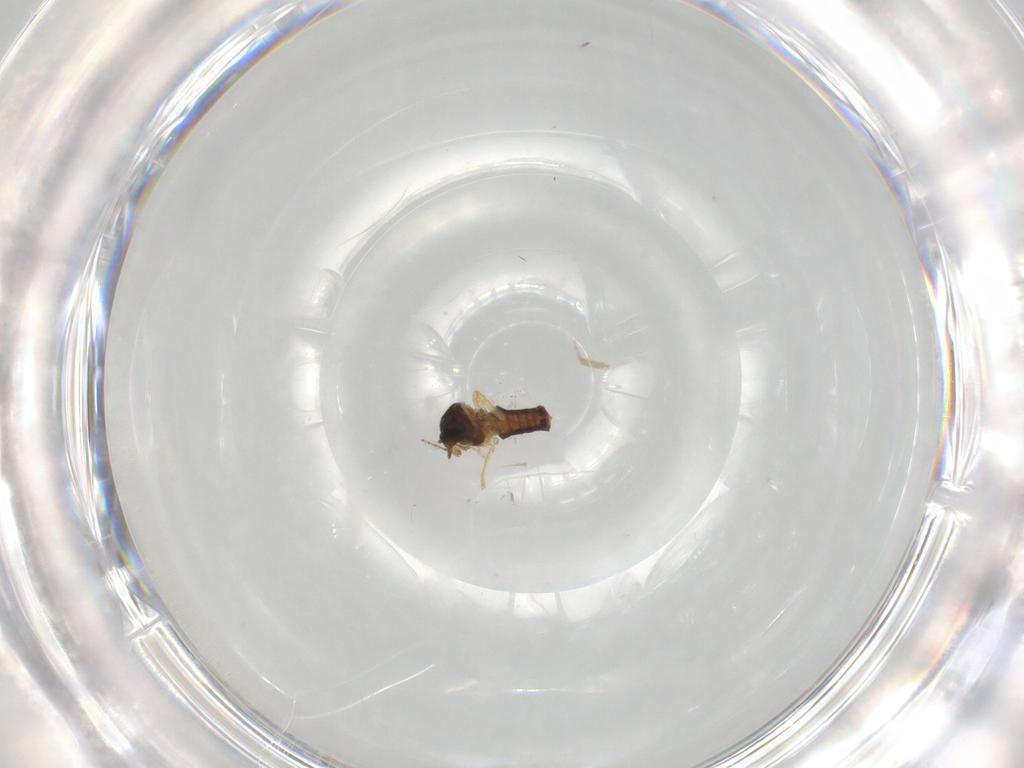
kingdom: Animalia
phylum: Arthropoda
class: Insecta
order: Diptera
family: Ceratopogonidae
